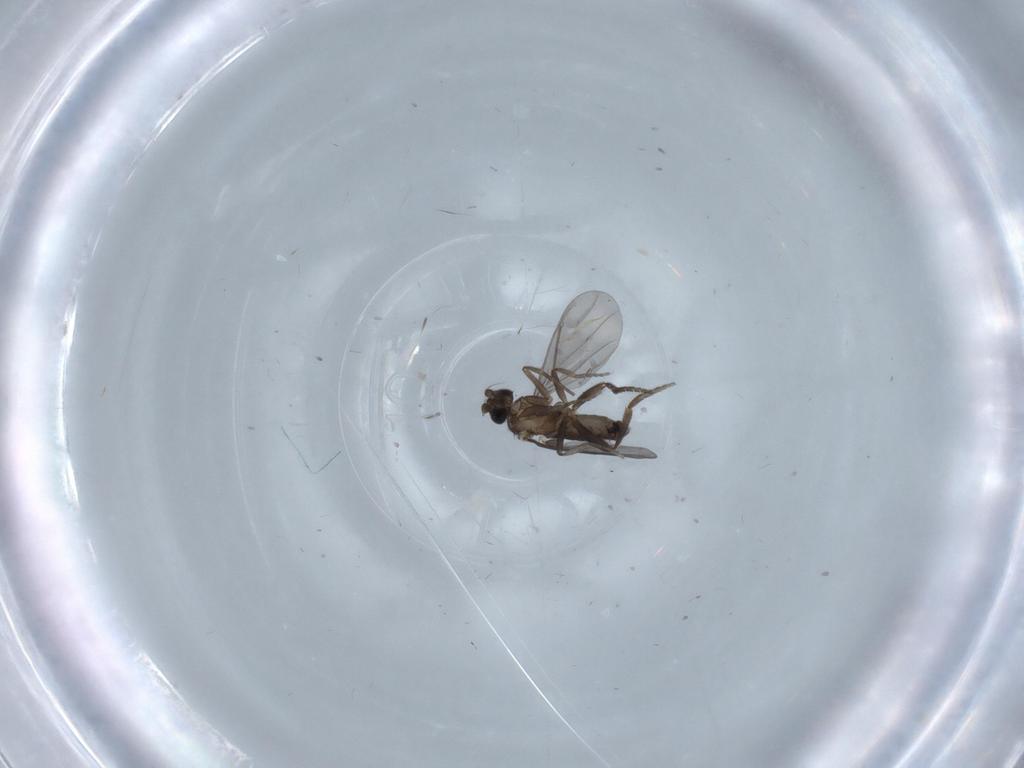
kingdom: Animalia
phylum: Arthropoda
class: Insecta
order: Diptera
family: Phoridae
